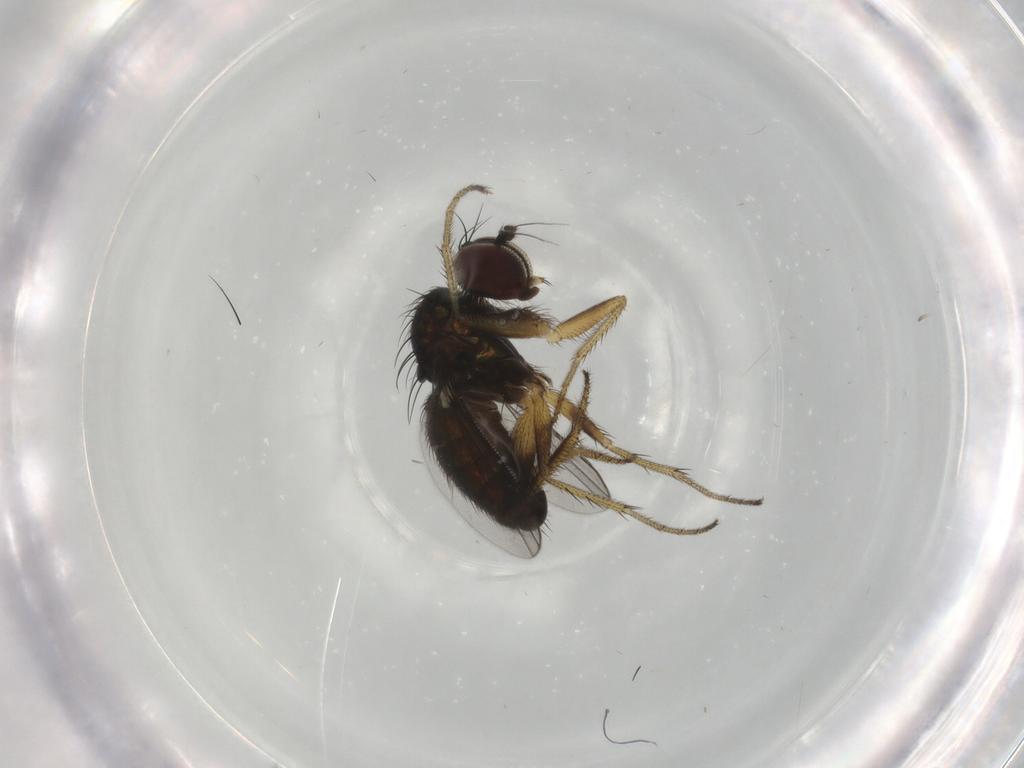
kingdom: Animalia
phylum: Arthropoda
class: Insecta
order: Diptera
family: Dolichopodidae
